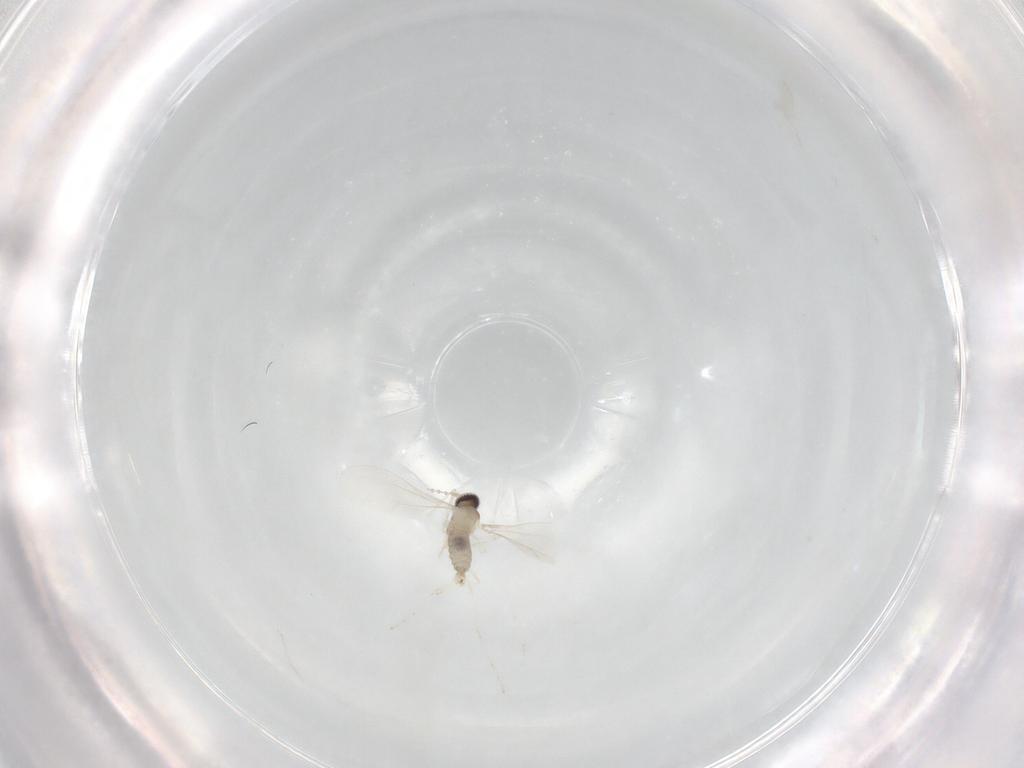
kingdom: Animalia
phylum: Arthropoda
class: Insecta
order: Diptera
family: Cecidomyiidae
